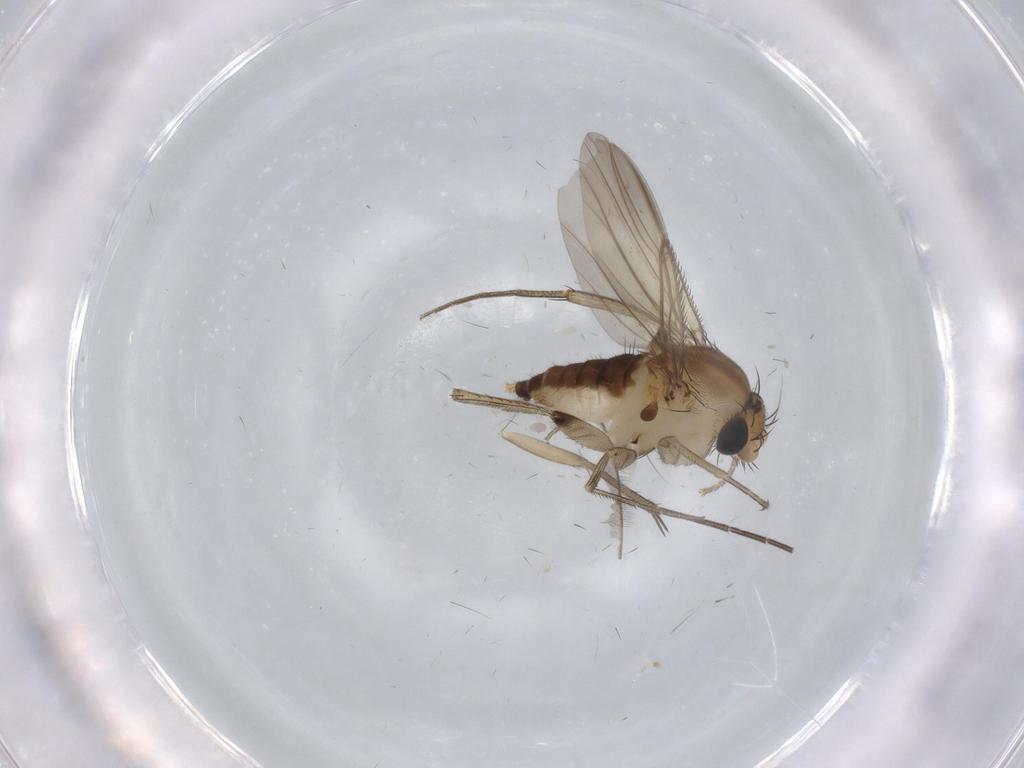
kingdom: Animalia
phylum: Arthropoda
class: Insecta
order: Diptera
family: Phoridae
